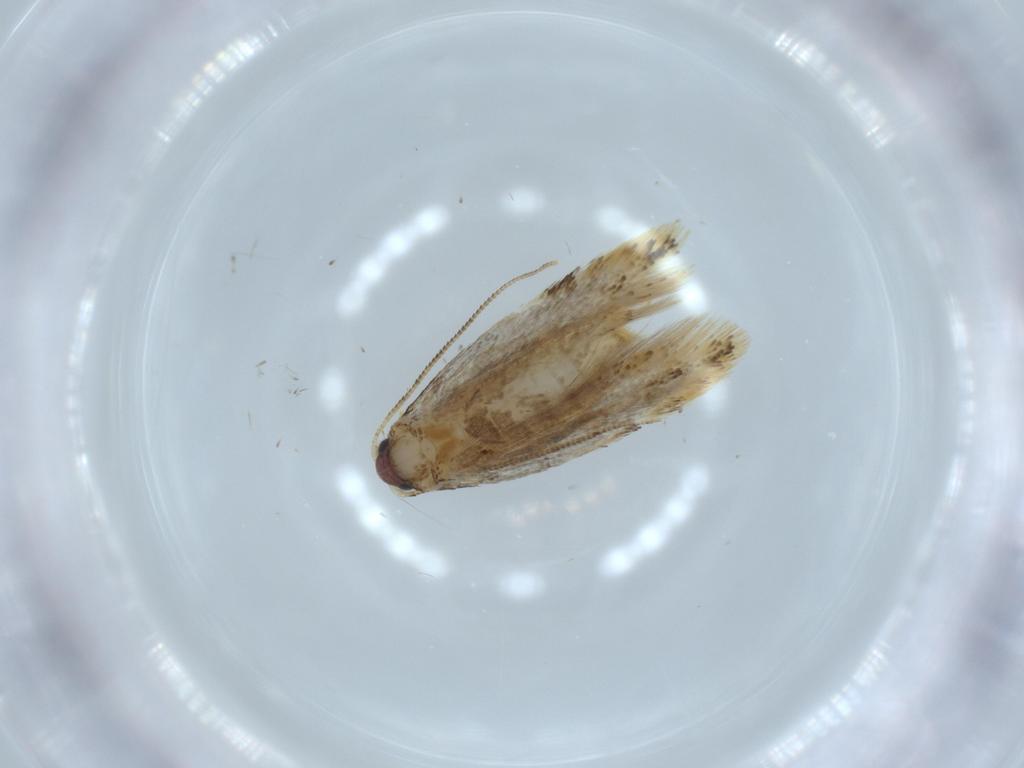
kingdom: Animalia
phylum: Arthropoda
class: Insecta
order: Lepidoptera
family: Tineidae
